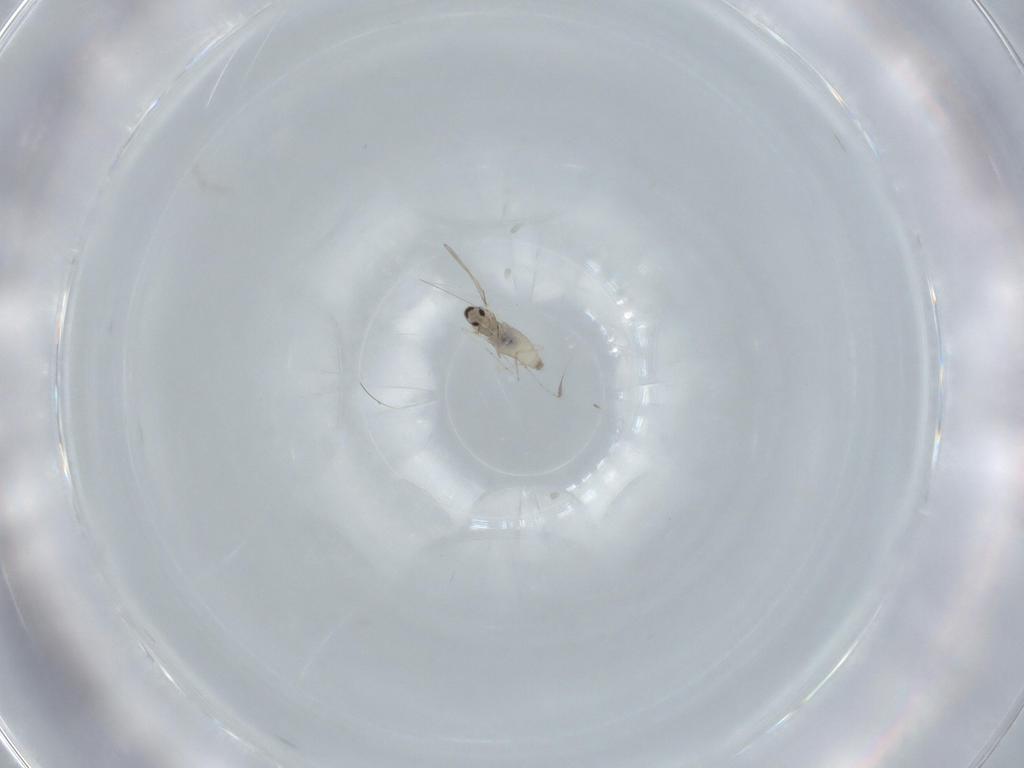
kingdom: Animalia
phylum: Arthropoda
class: Insecta
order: Diptera
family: Cecidomyiidae
